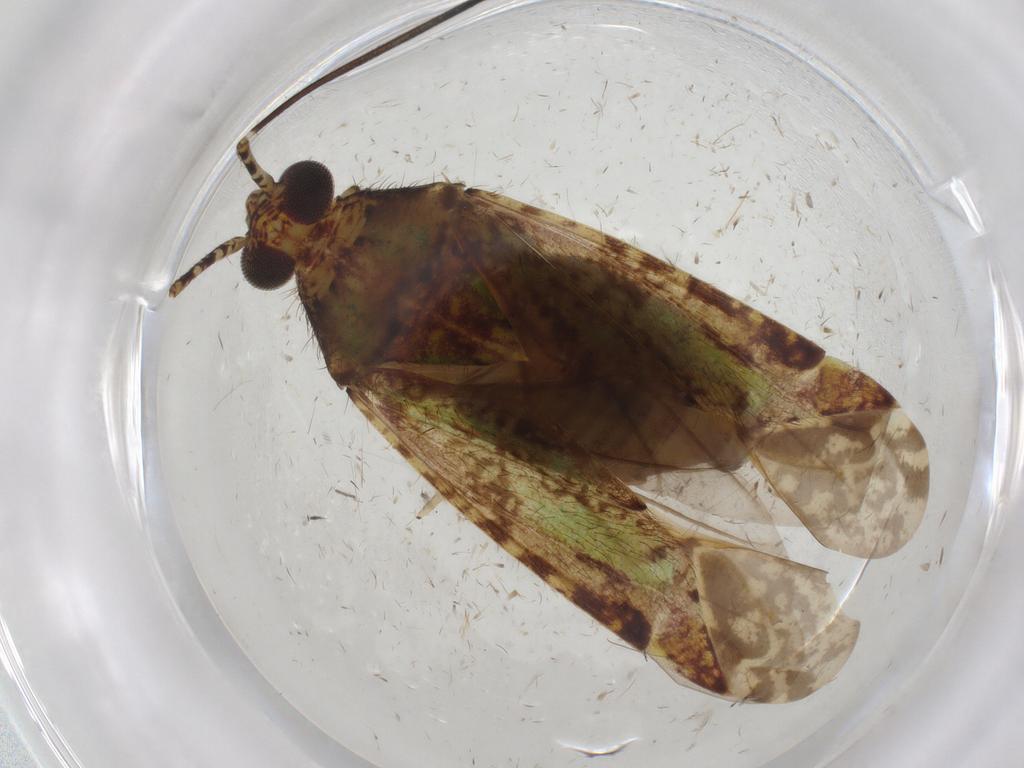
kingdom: Animalia
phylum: Arthropoda
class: Insecta
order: Hemiptera
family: Miridae
